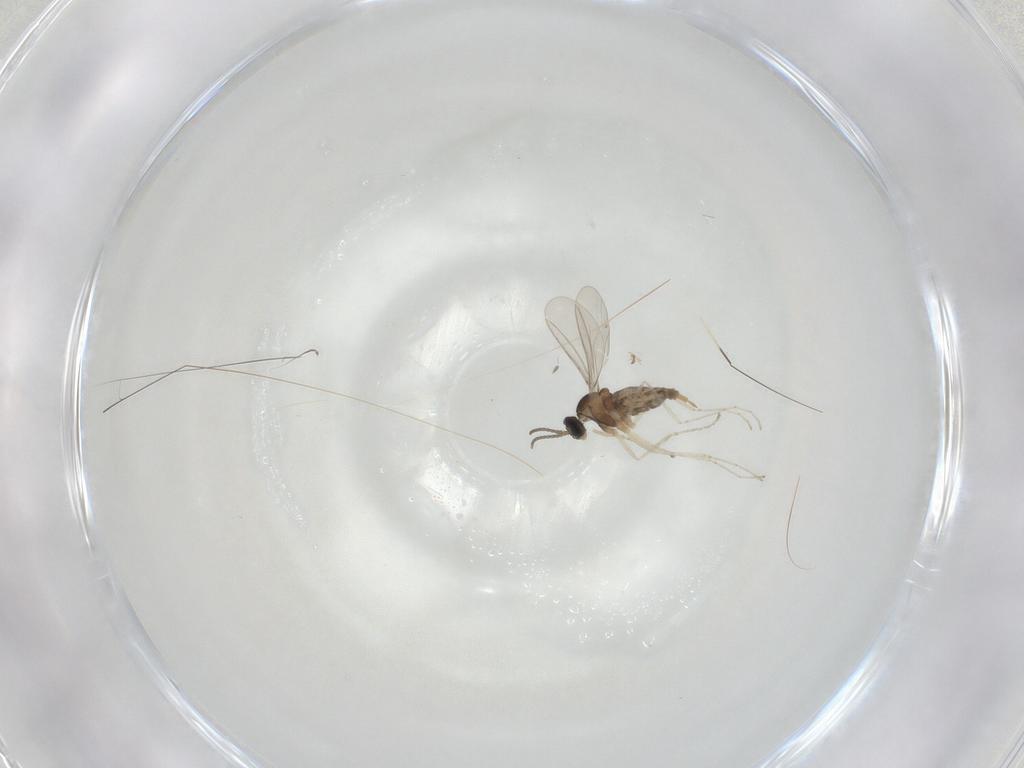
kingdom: Animalia
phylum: Arthropoda
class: Insecta
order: Diptera
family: Cecidomyiidae
